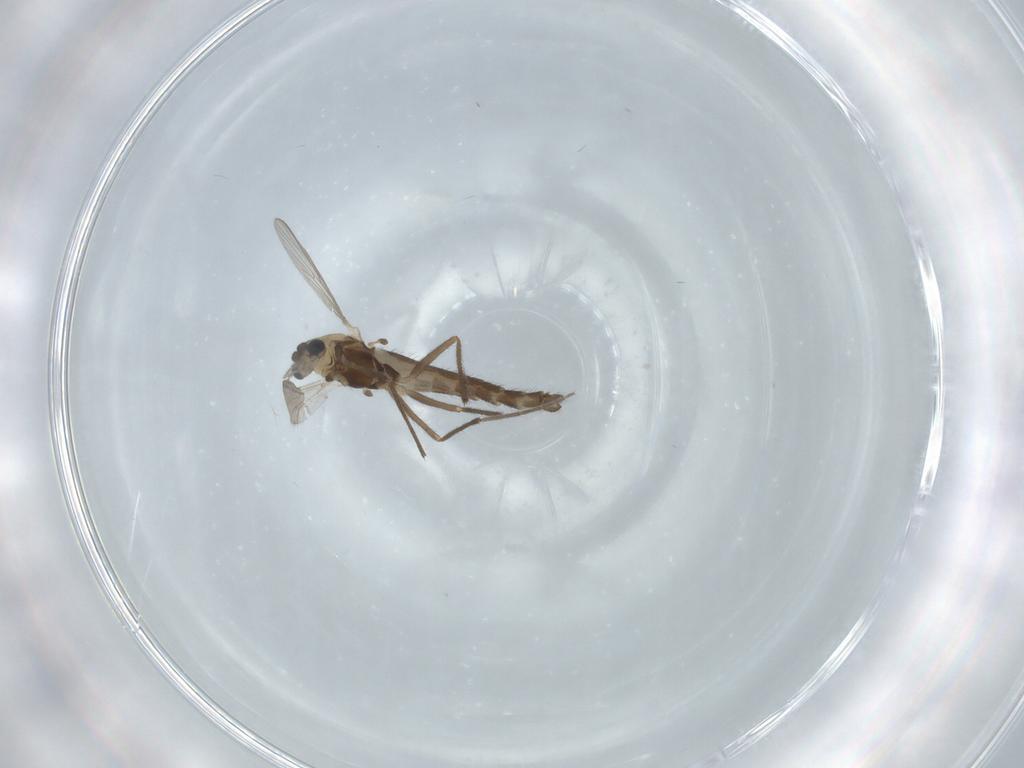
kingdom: Animalia
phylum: Arthropoda
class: Insecta
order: Diptera
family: Chironomidae
